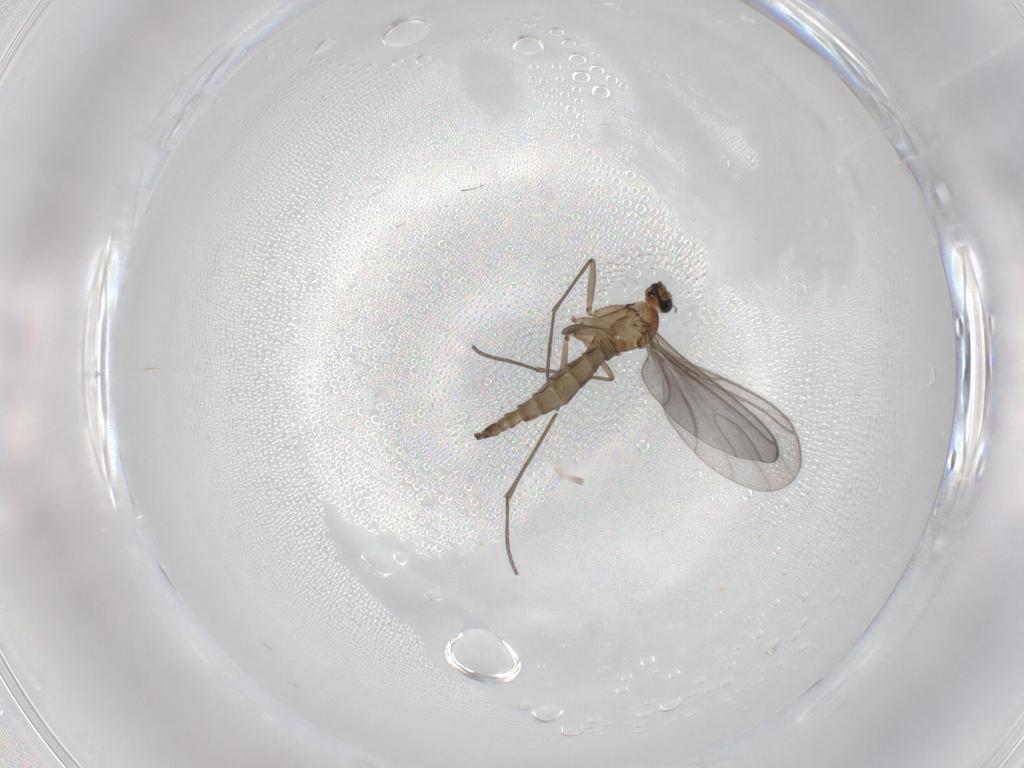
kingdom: Animalia
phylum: Arthropoda
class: Insecta
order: Diptera
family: Sciaridae
